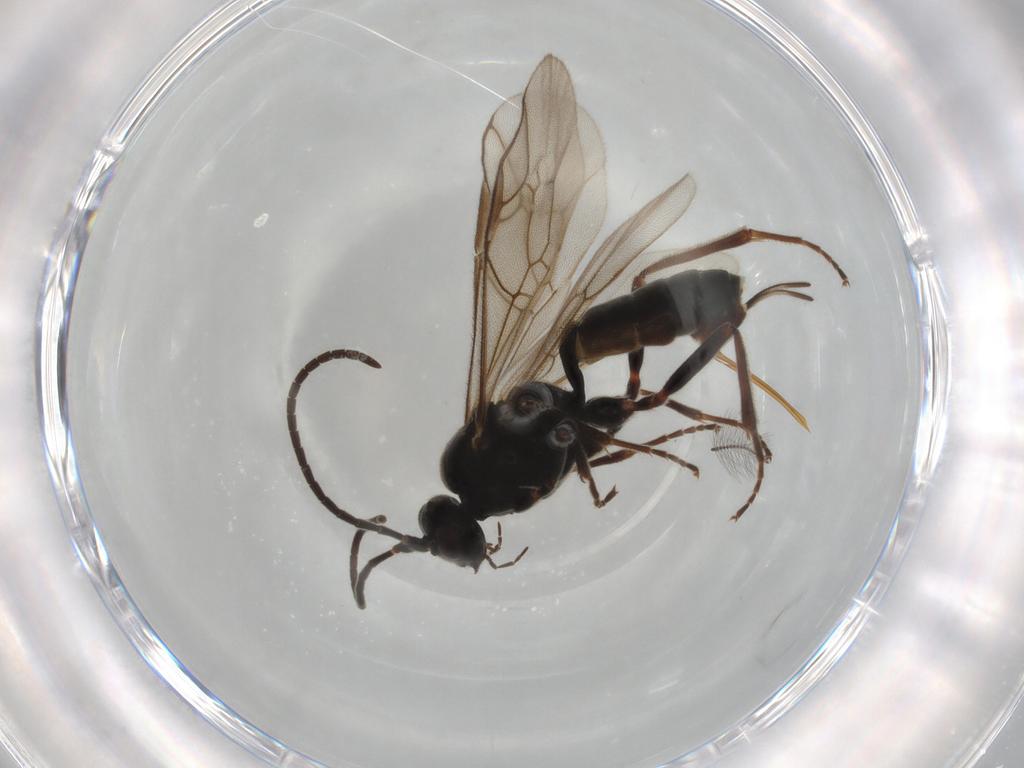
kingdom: Animalia
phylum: Arthropoda
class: Insecta
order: Hymenoptera
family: Ichneumonidae
